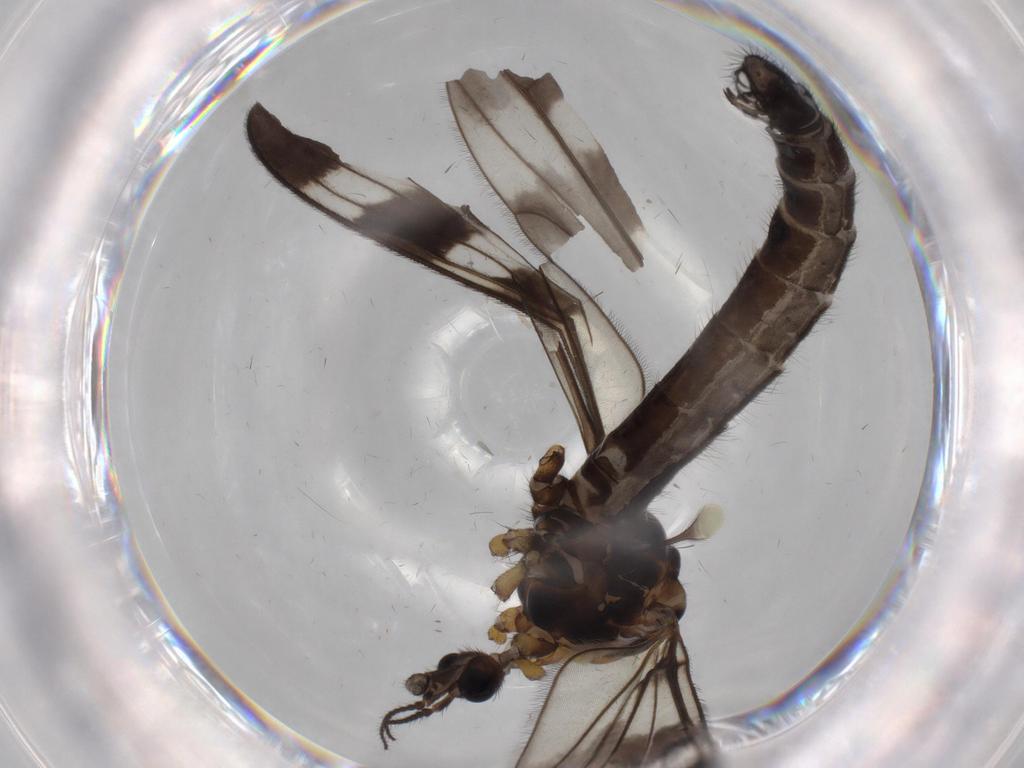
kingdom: Animalia
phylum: Arthropoda
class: Insecta
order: Diptera
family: Limoniidae
